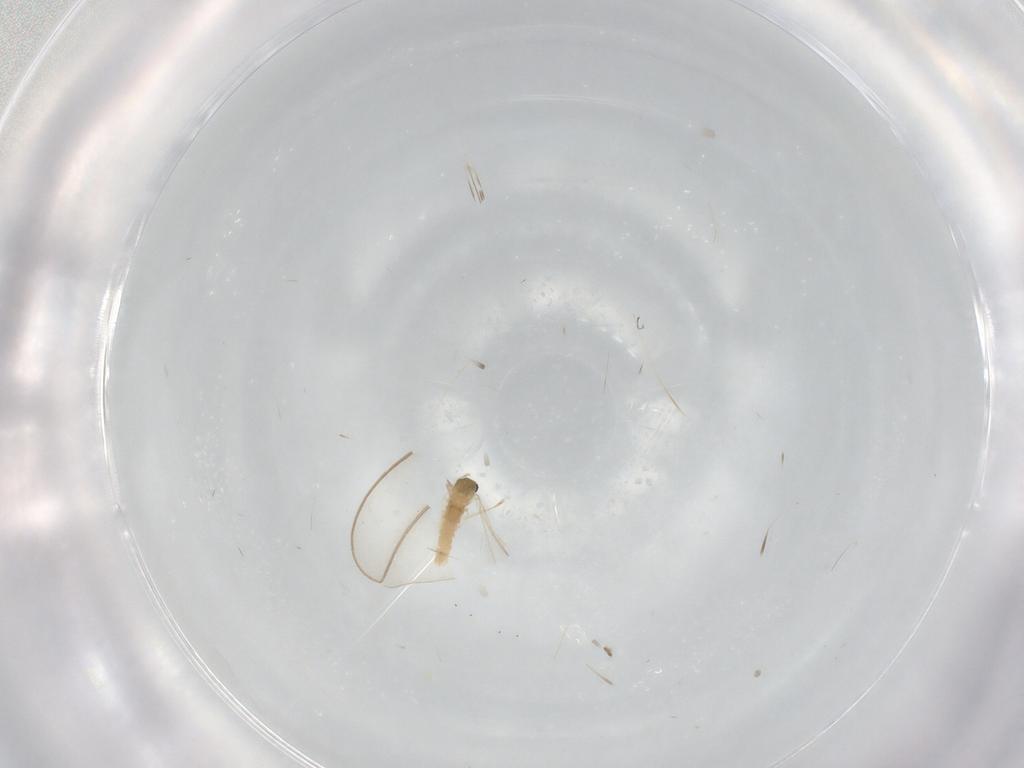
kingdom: Animalia
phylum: Arthropoda
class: Insecta
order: Diptera
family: Cecidomyiidae
